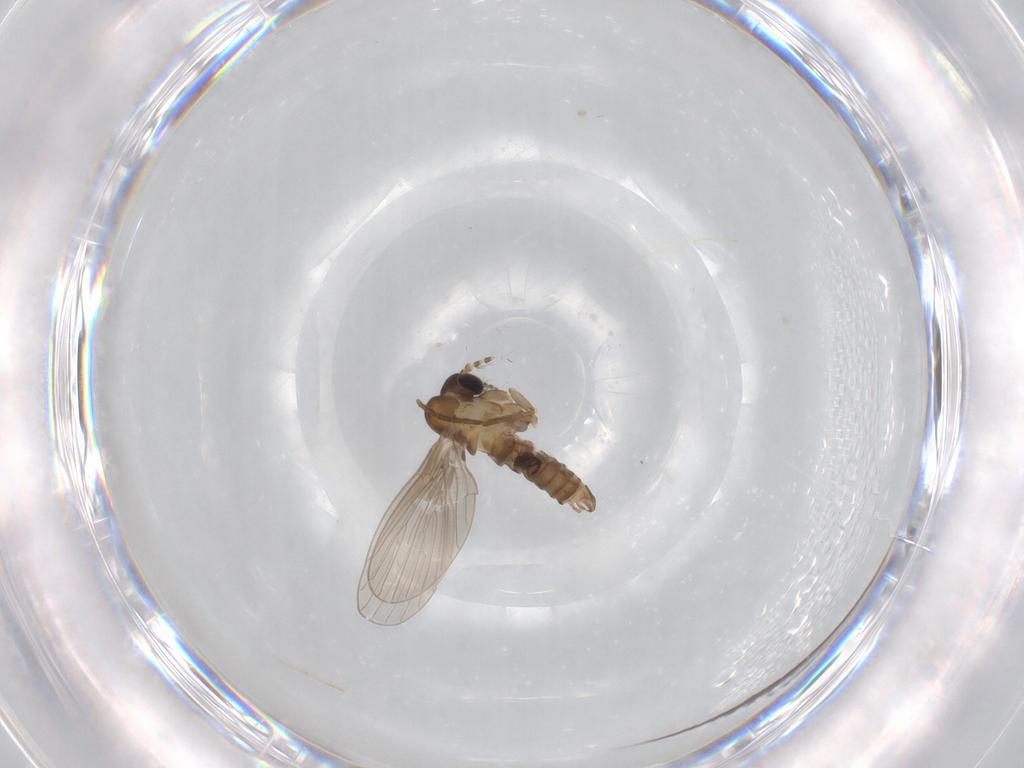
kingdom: Animalia
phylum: Arthropoda
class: Insecta
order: Diptera
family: Psychodidae
